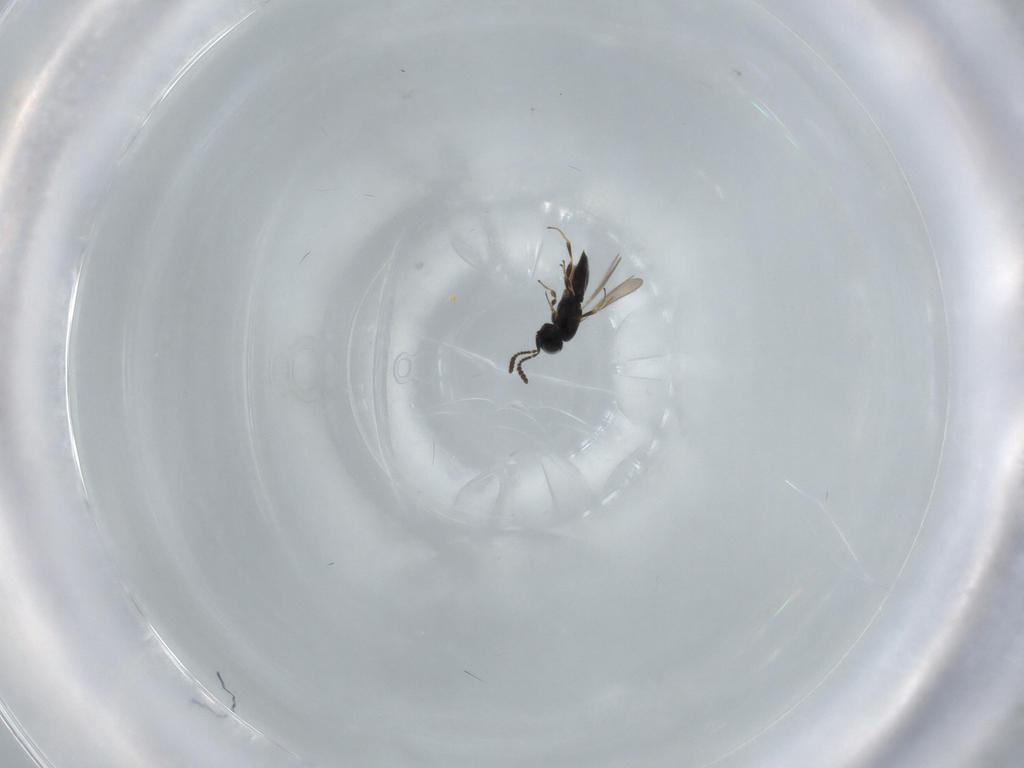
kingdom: Animalia
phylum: Arthropoda
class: Insecta
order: Hymenoptera
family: Scelionidae
